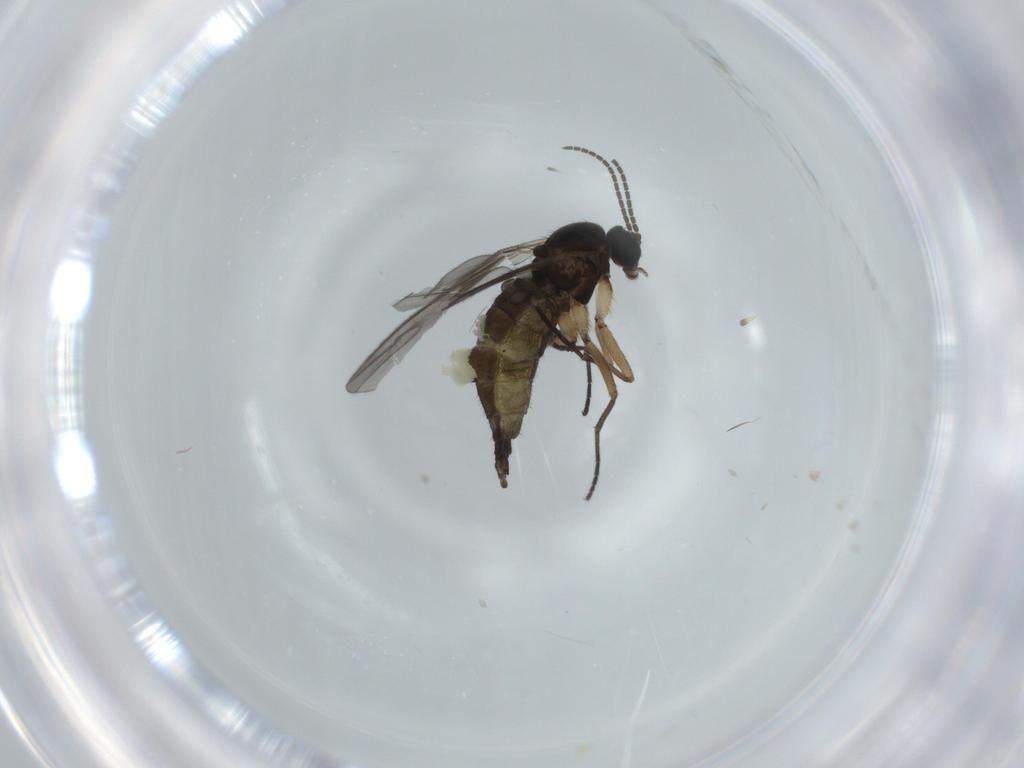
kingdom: Animalia
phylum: Arthropoda
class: Insecta
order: Diptera
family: Sciaridae
